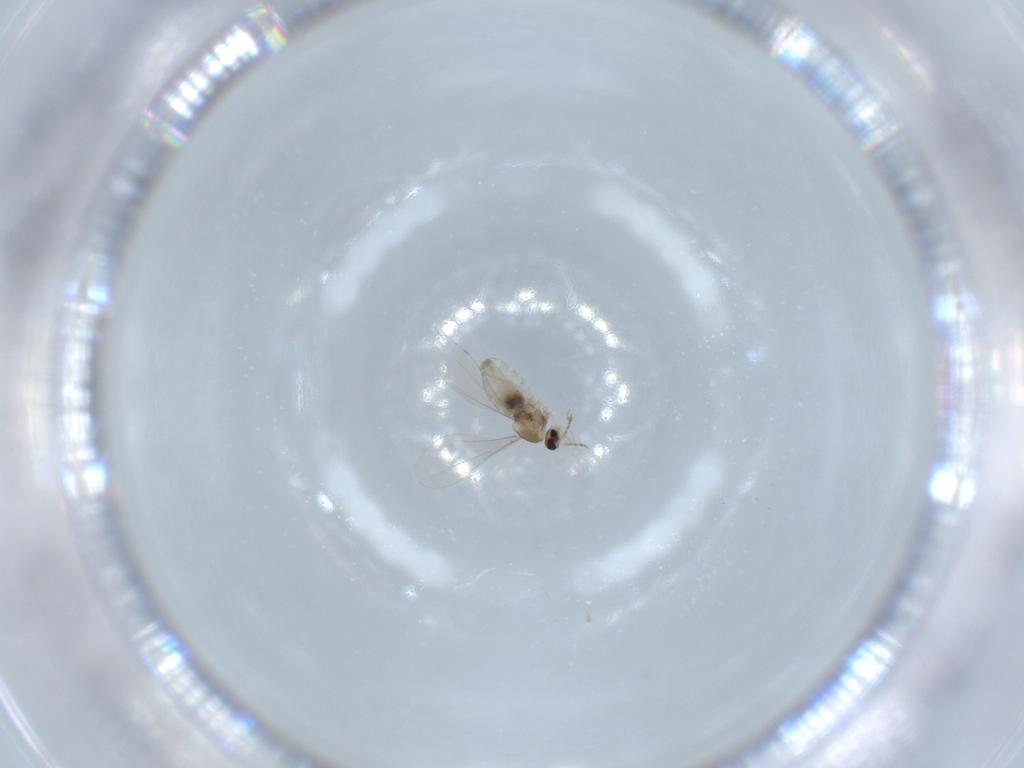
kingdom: Animalia
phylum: Arthropoda
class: Insecta
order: Diptera
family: Cecidomyiidae
